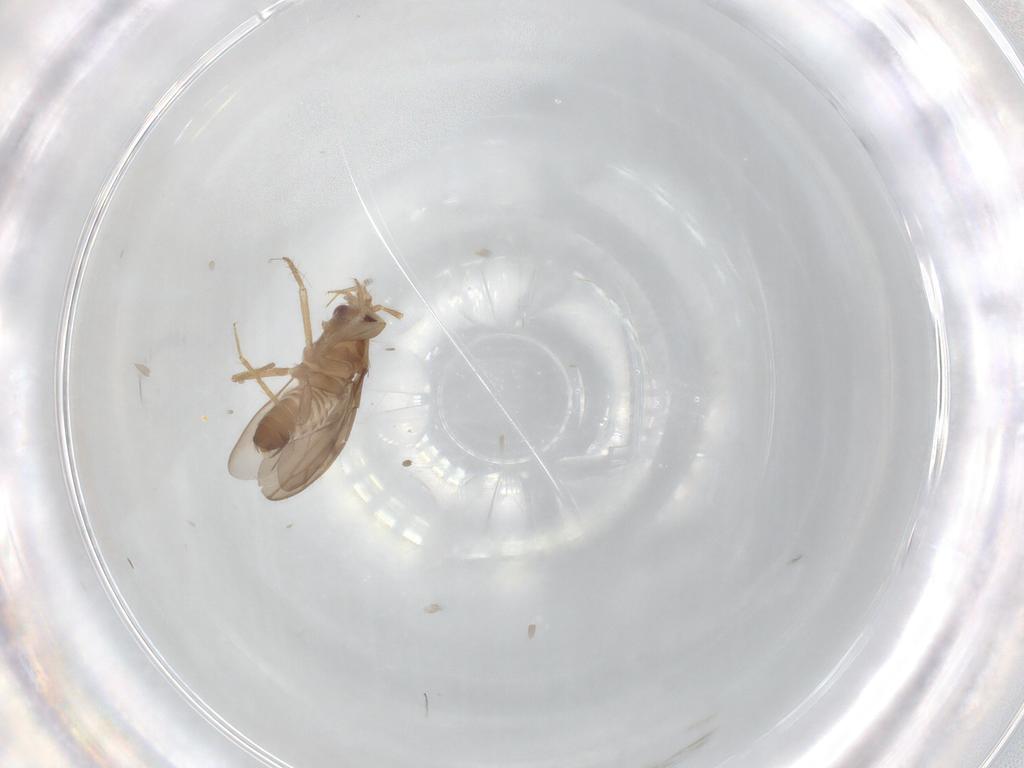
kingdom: Animalia
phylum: Arthropoda
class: Insecta
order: Hemiptera
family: Ceratocombidae
